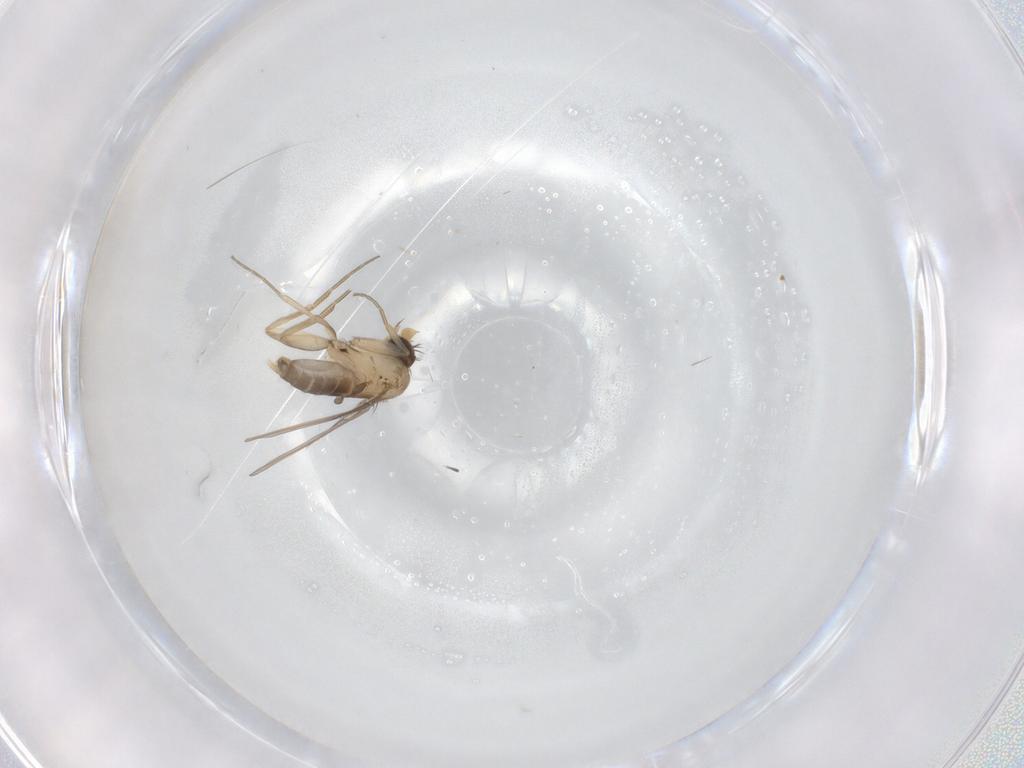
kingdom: Animalia
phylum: Arthropoda
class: Insecta
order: Diptera
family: Phoridae
